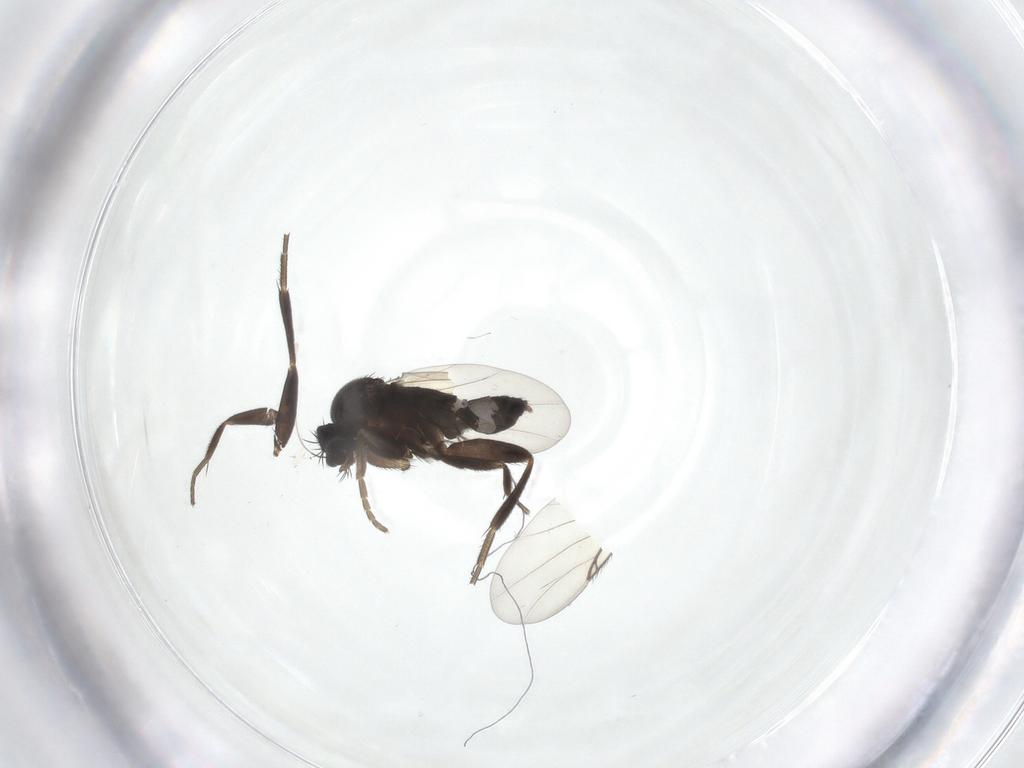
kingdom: Animalia
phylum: Arthropoda
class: Insecta
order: Diptera
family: Phoridae
